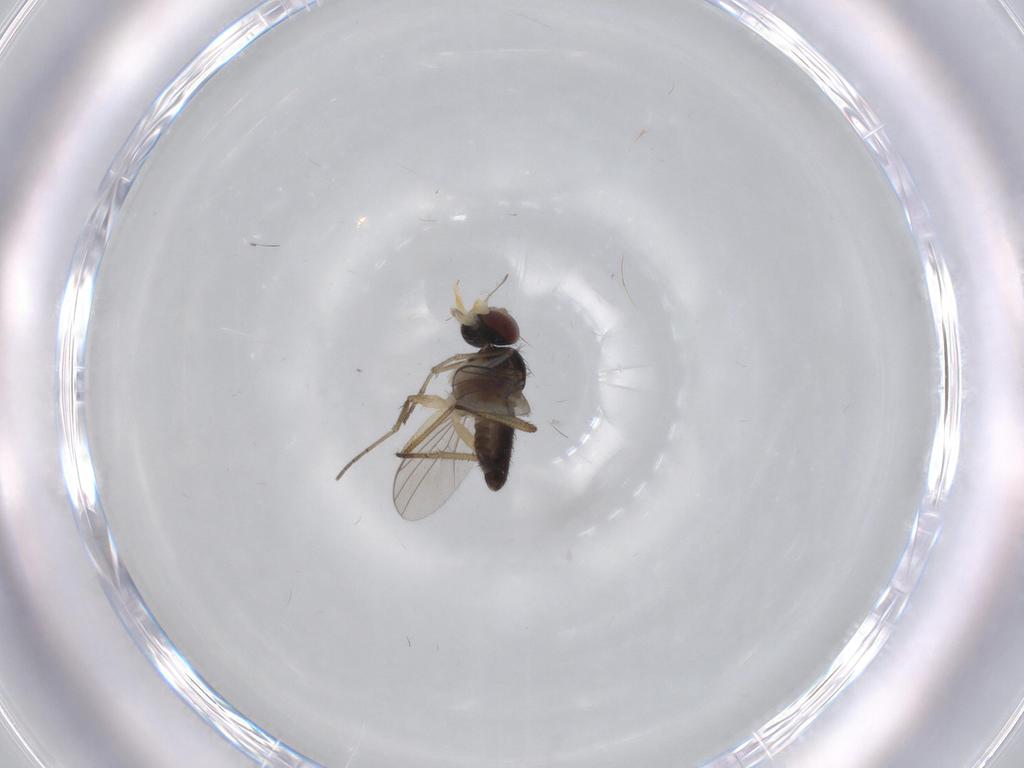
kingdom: Animalia
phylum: Arthropoda
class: Insecta
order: Diptera
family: Dolichopodidae
